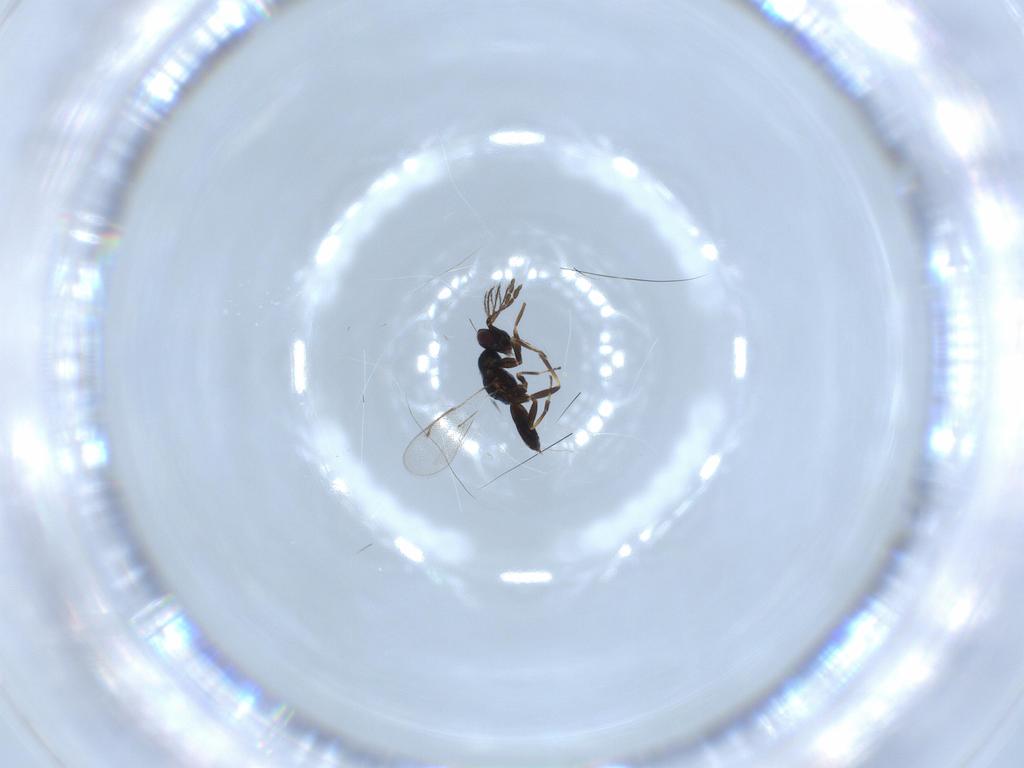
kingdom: Animalia
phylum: Arthropoda
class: Insecta
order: Hymenoptera
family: Eulophidae
